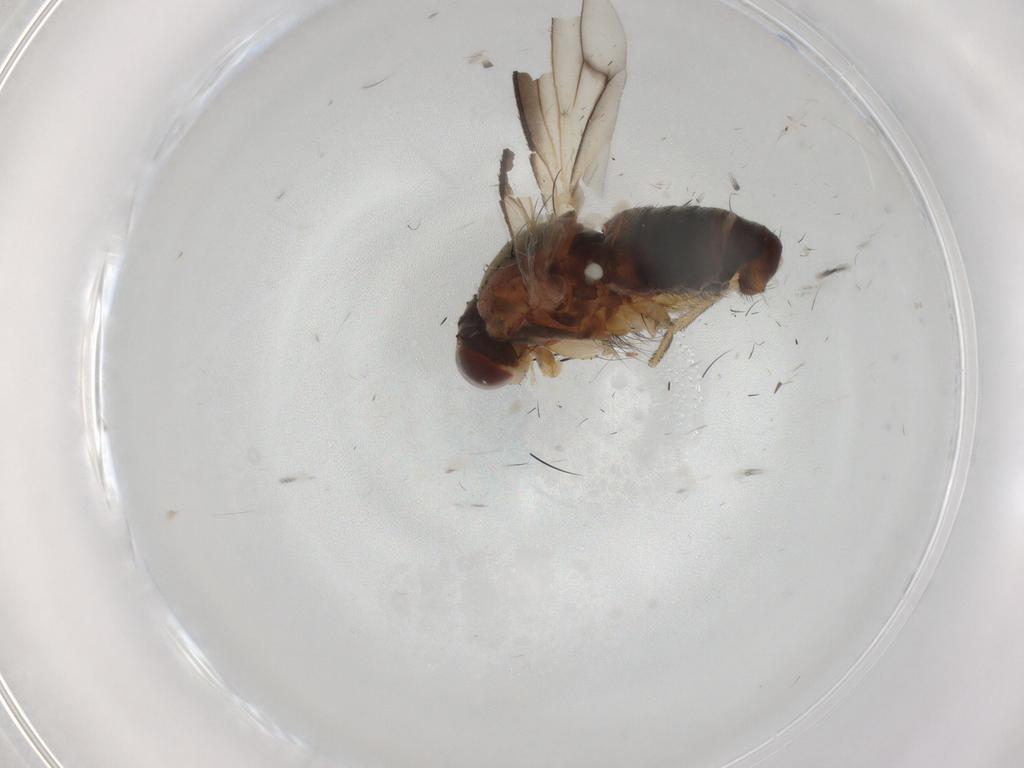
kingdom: Animalia
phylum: Arthropoda
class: Insecta
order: Diptera
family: Heleomyzidae
